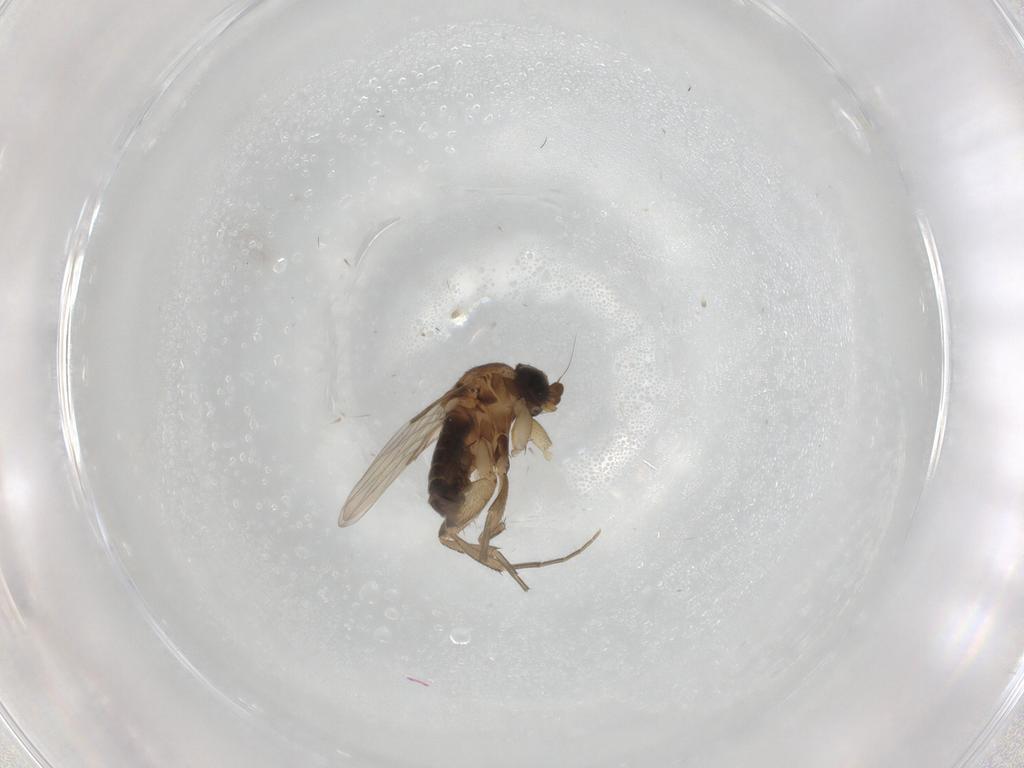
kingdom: Animalia
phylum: Arthropoda
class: Insecta
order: Diptera
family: Phoridae
